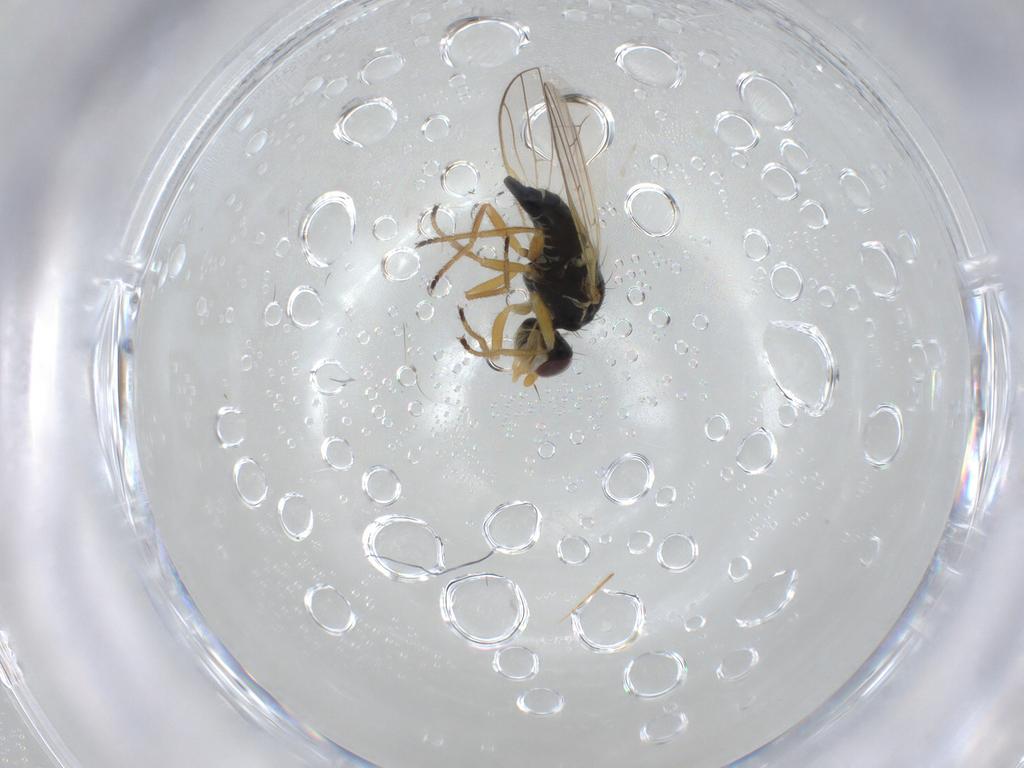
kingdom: Animalia
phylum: Arthropoda
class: Insecta
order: Diptera
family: Tephritidae
